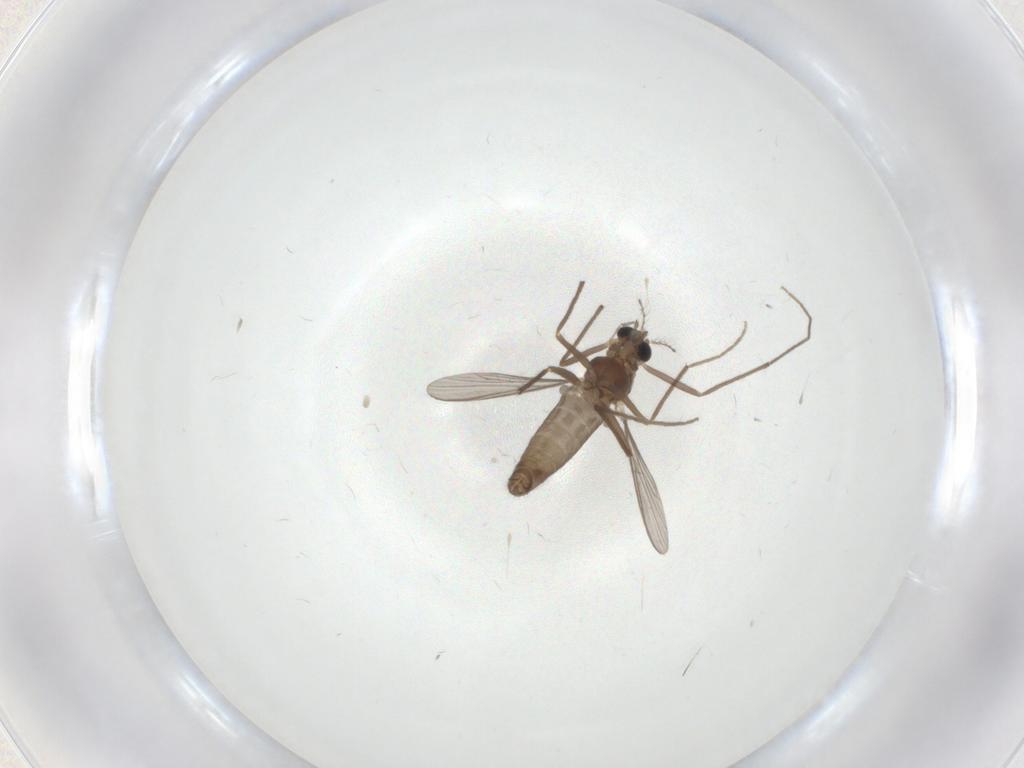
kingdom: Animalia
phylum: Arthropoda
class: Insecta
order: Diptera
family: Chironomidae
